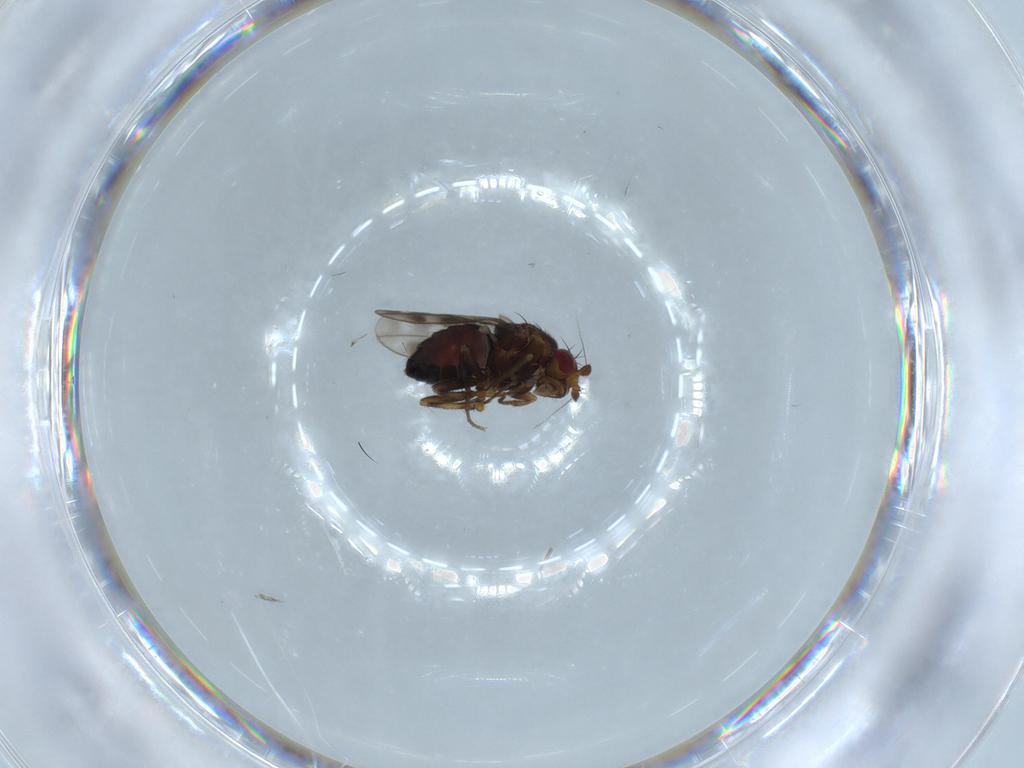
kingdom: Animalia
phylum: Arthropoda
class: Insecta
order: Diptera
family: Sphaeroceridae
